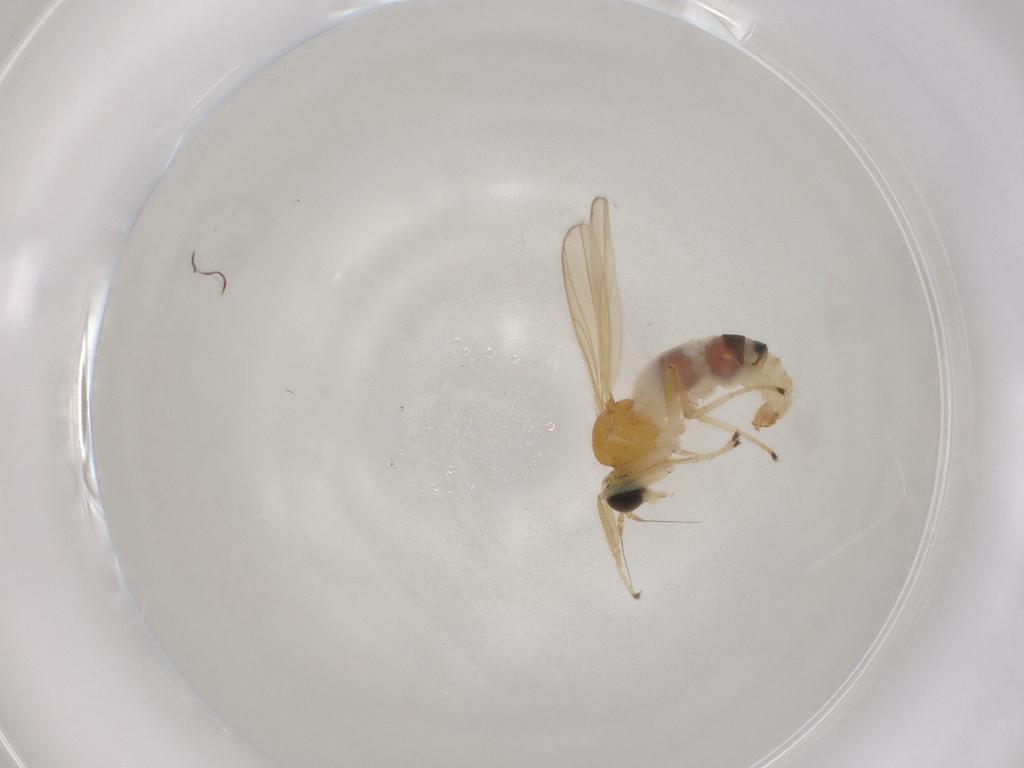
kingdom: Animalia
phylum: Arthropoda
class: Insecta
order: Diptera
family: Hybotidae
